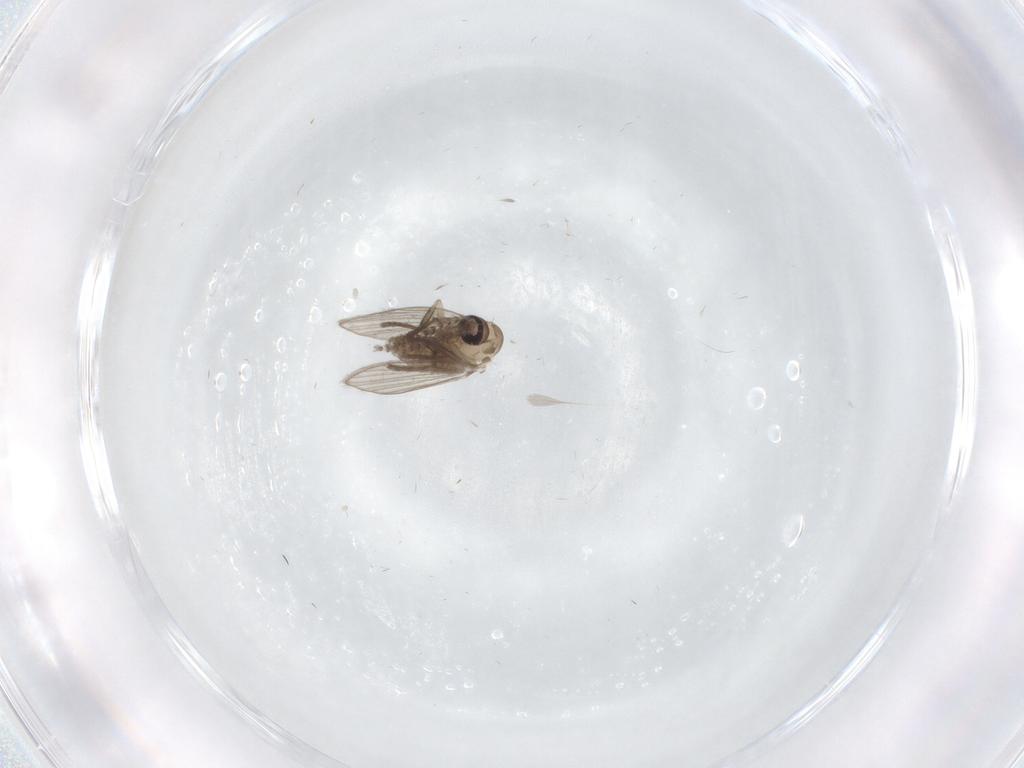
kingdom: Animalia
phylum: Arthropoda
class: Insecta
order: Diptera
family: Psychodidae
